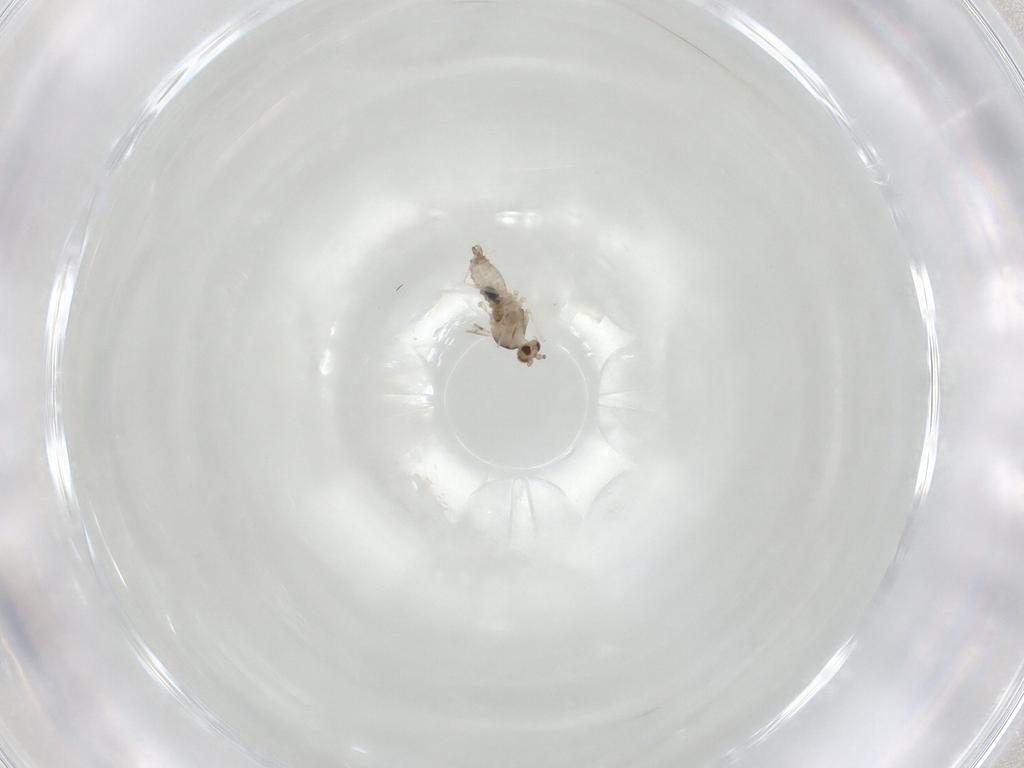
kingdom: Animalia
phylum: Arthropoda
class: Insecta
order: Diptera
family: Cecidomyiidae
